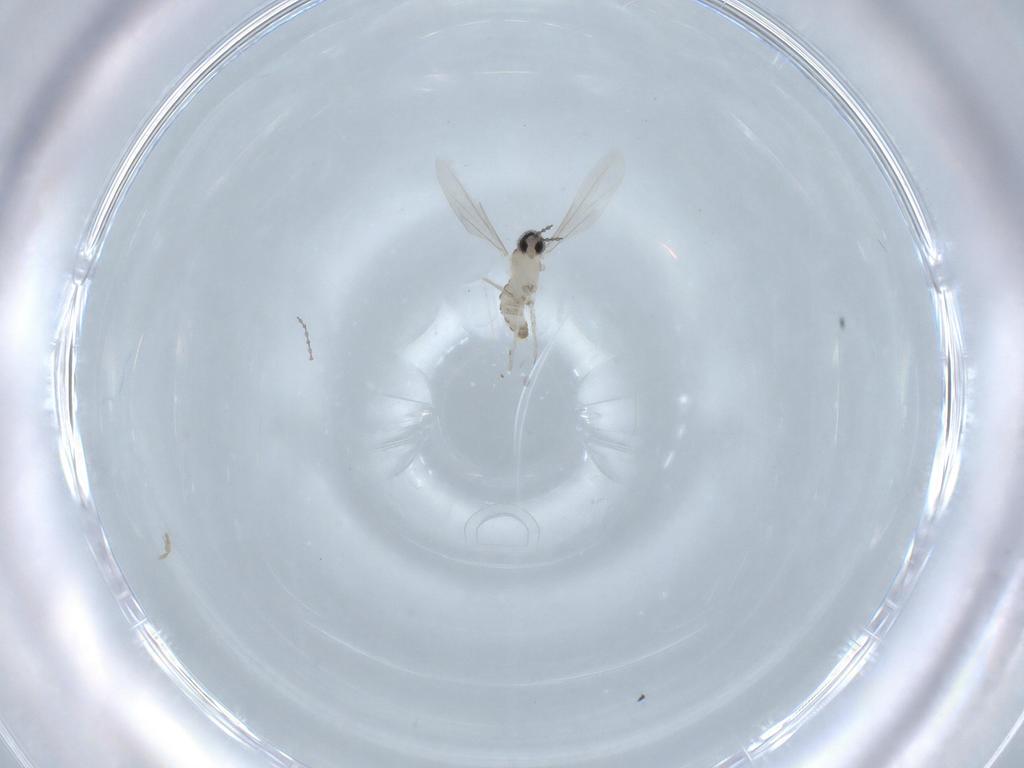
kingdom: Animalia
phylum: Arthropoda
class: Insecta
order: Diptera
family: Cecidomyiidae
